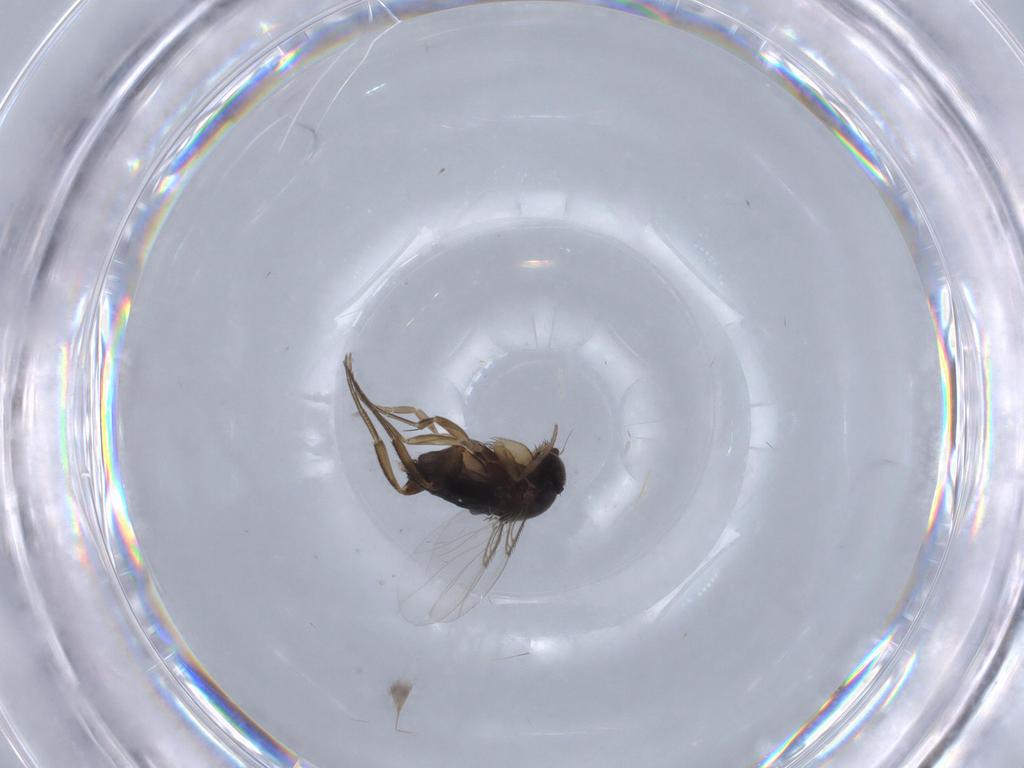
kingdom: Animalia
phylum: Arthropoda
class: Insecta
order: Diptera
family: Phoridae
